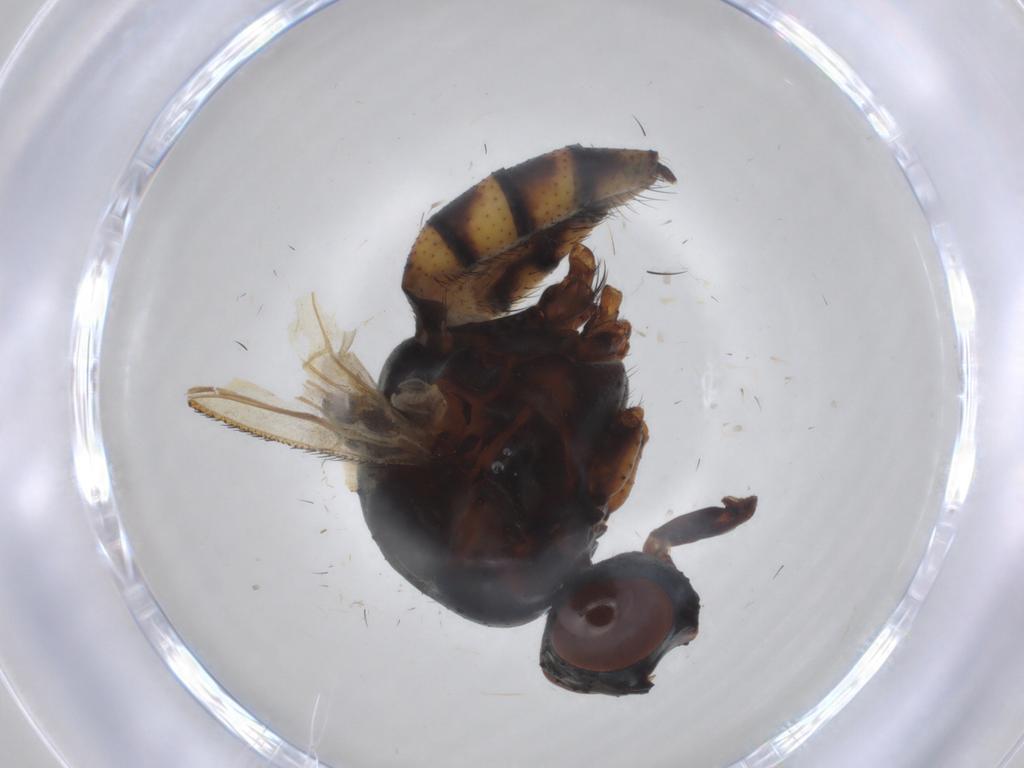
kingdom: Animalia
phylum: Arthropoda
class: Insecta
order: Diptera
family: Anthomyiidae
